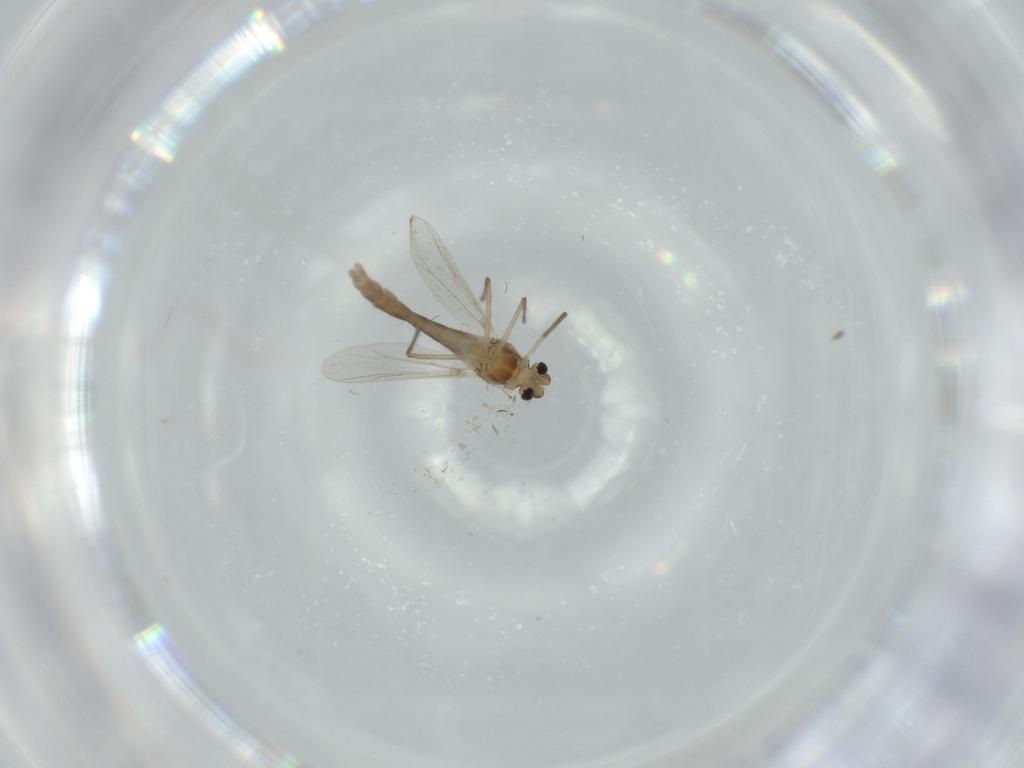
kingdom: Animalia
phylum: Arthropoda
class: Insecta
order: Diptera
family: Chironomidae
